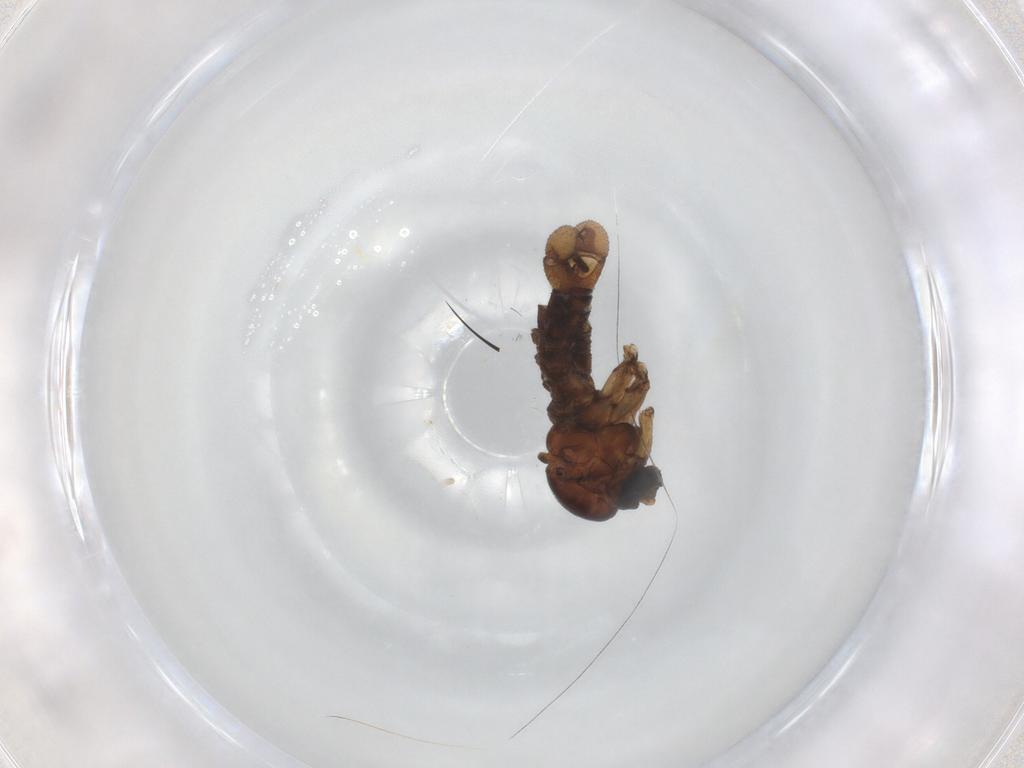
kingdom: Animalia
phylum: Arthropoda
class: Insecta
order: Diptera
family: Sciaridae
